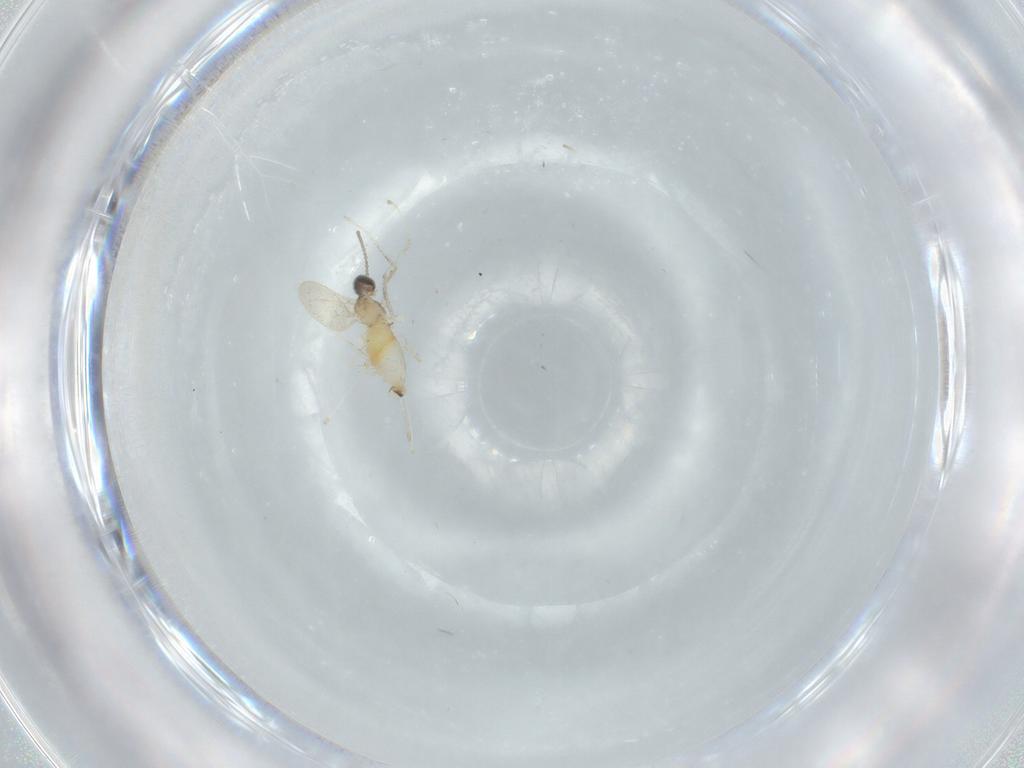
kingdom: Animalia
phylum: Arthropoda
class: Insecta
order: Diptera
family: Cecidomyiidae
